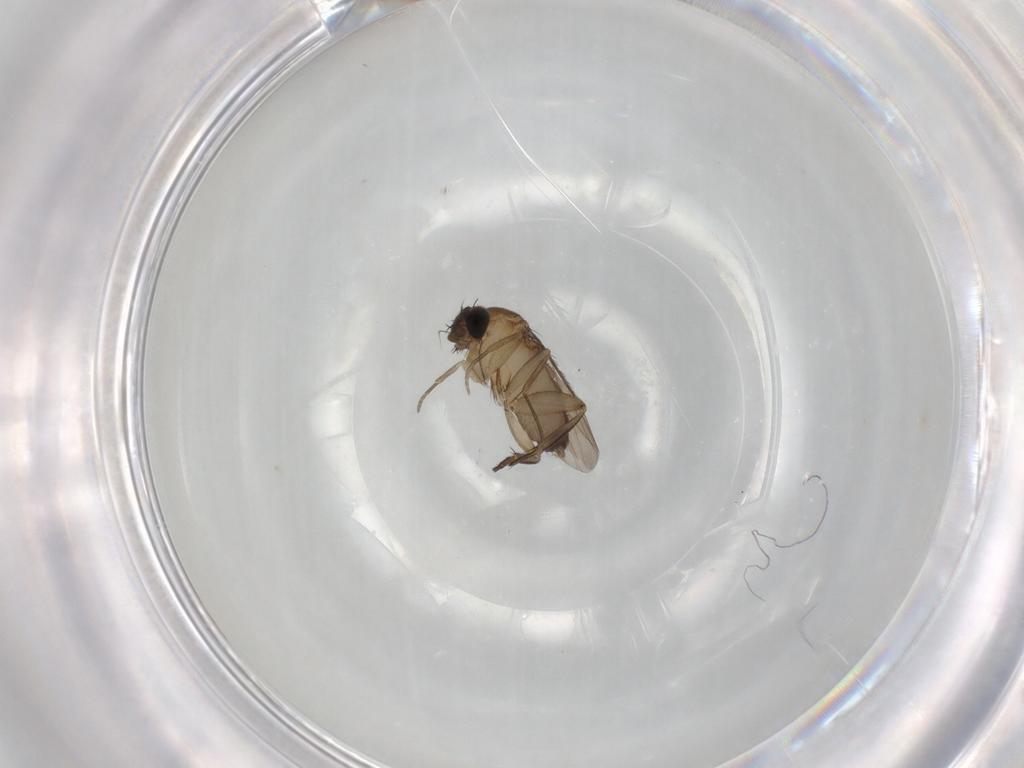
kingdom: Animalia
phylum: Arthropoda
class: Insecta
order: Diptera
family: Phoridae
